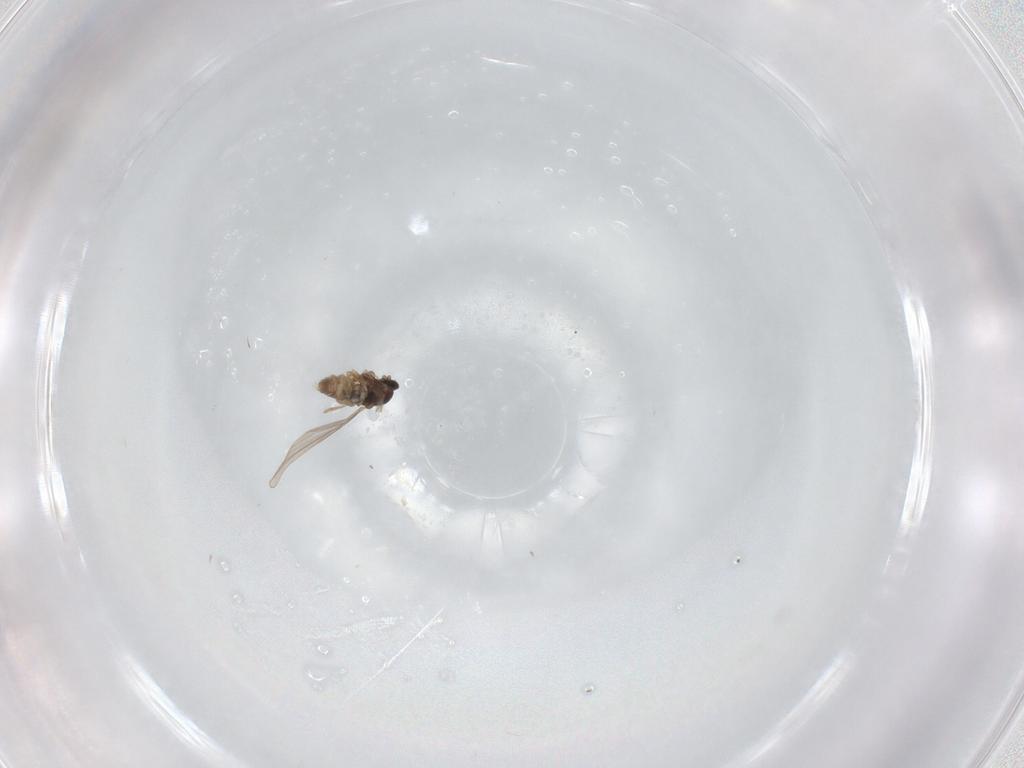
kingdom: Animalia
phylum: Arthropoda
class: Insecta
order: Diptera
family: Cecidomyiidae
